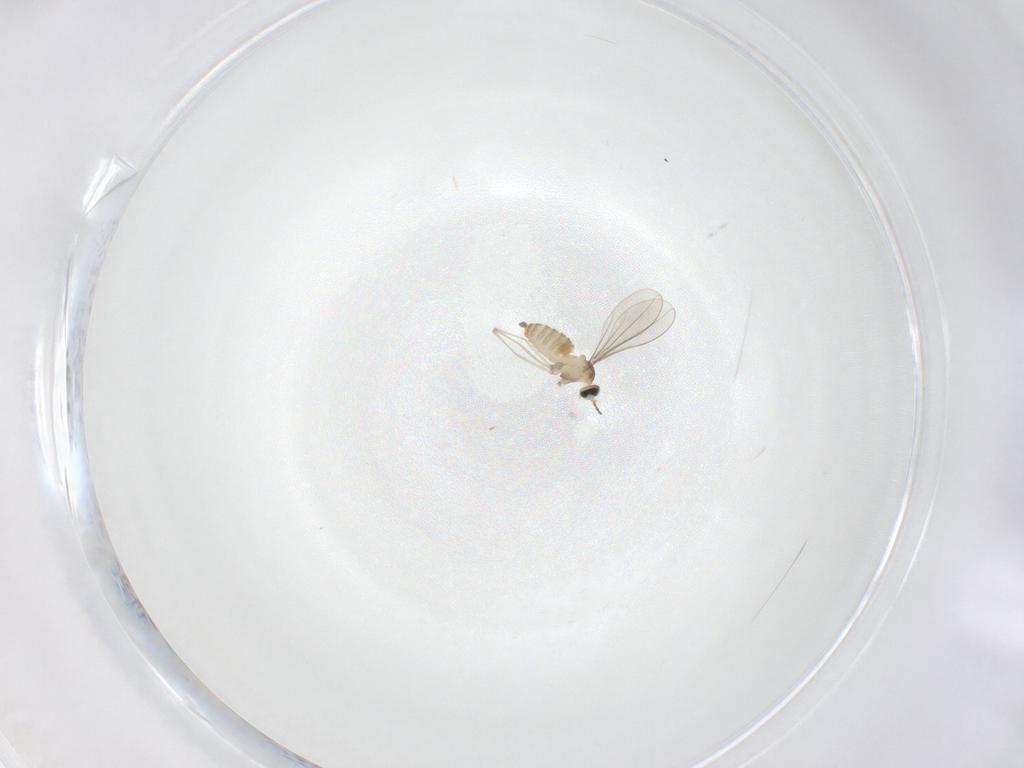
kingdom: Animalia
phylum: Arthropoda
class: Insecta
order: Diptera
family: Cecidomyiidae
